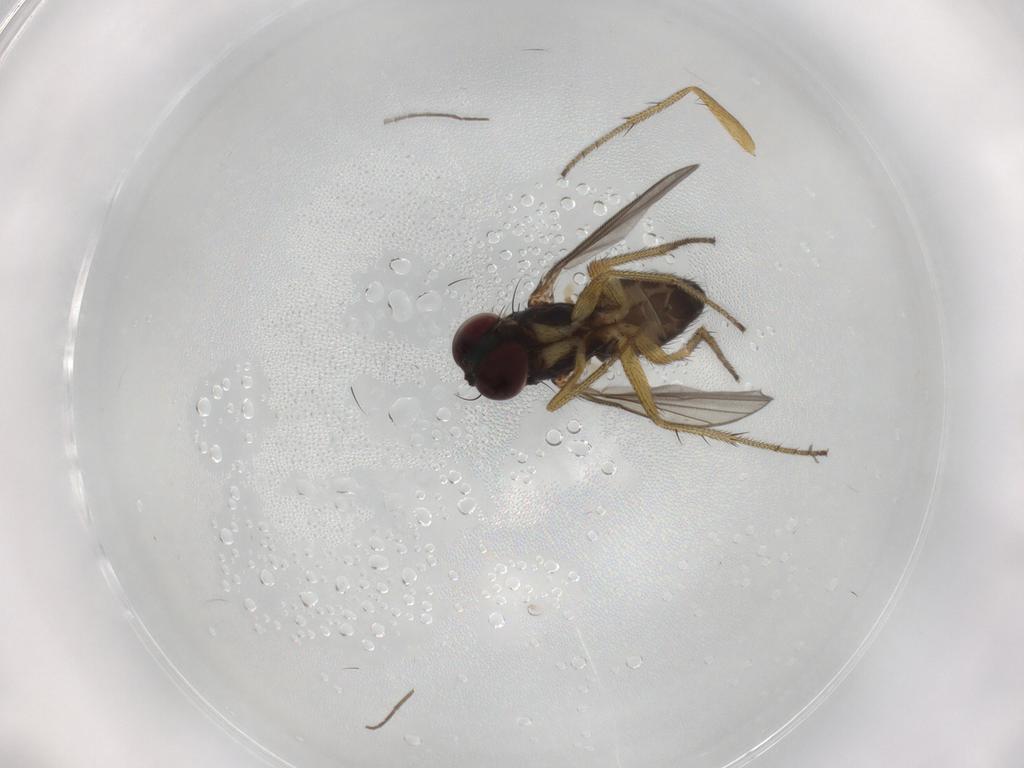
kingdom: Animalia
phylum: Arthropoda
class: Insecta
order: Diptera
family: Chironomidae
